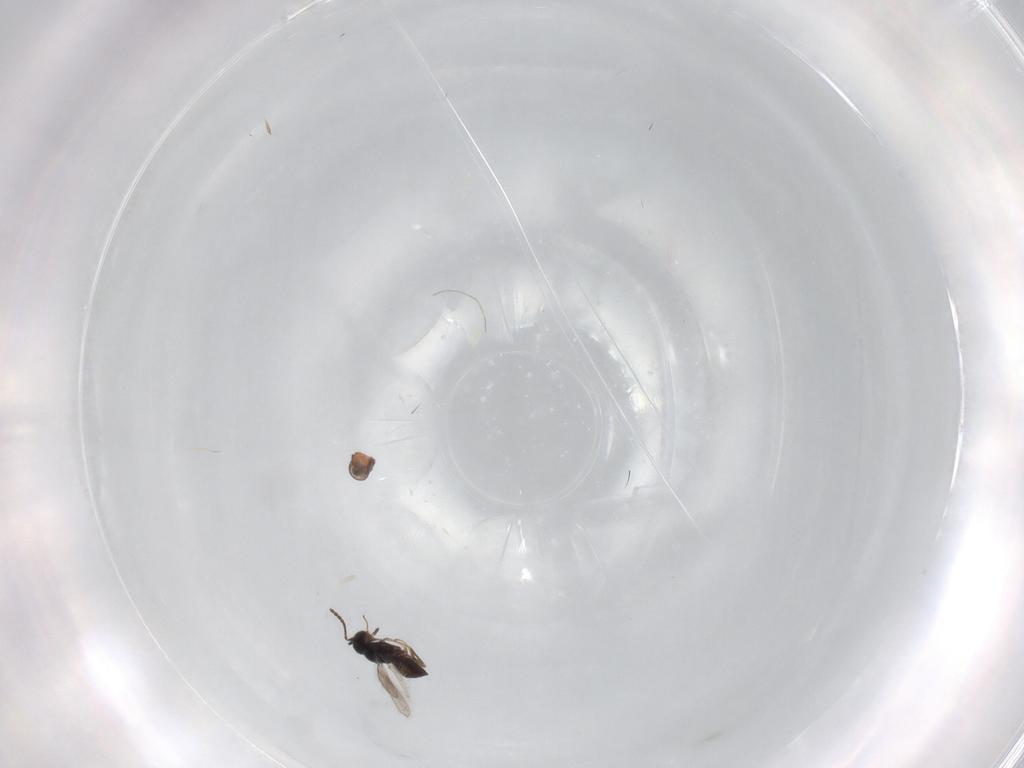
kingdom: Animalia
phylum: Arthropoda
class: Insecta
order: Hymenoptera
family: Scelionidae
